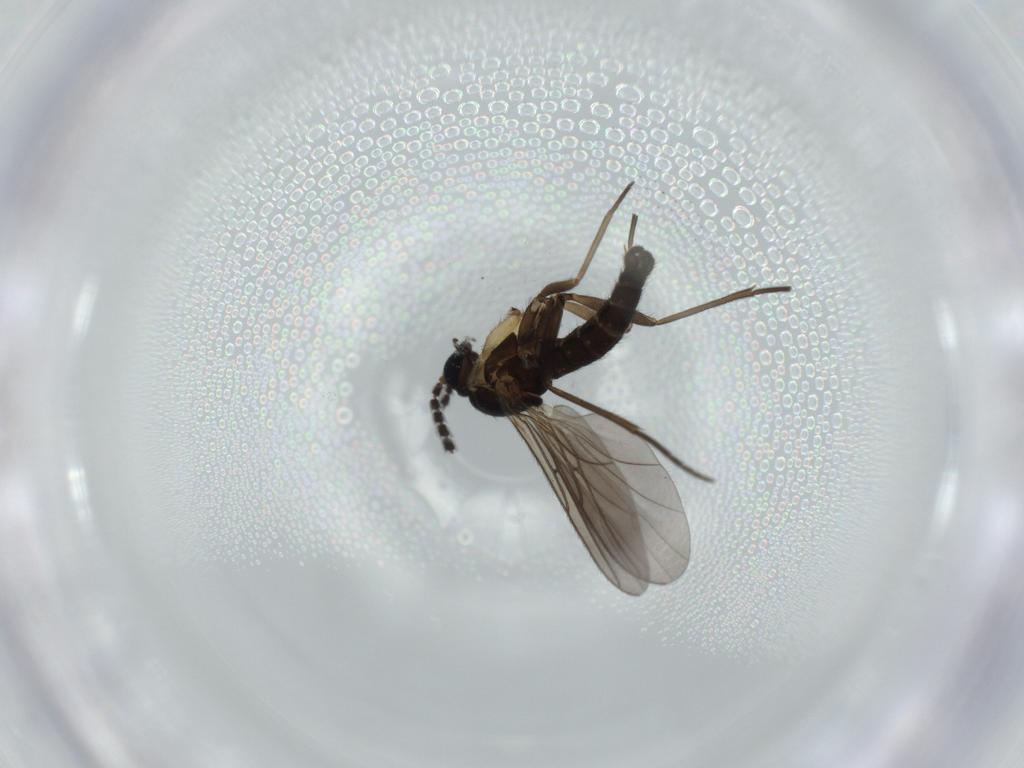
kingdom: Animalia
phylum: Arthropoda
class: Insecta
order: Diptera
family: Sciaridae
